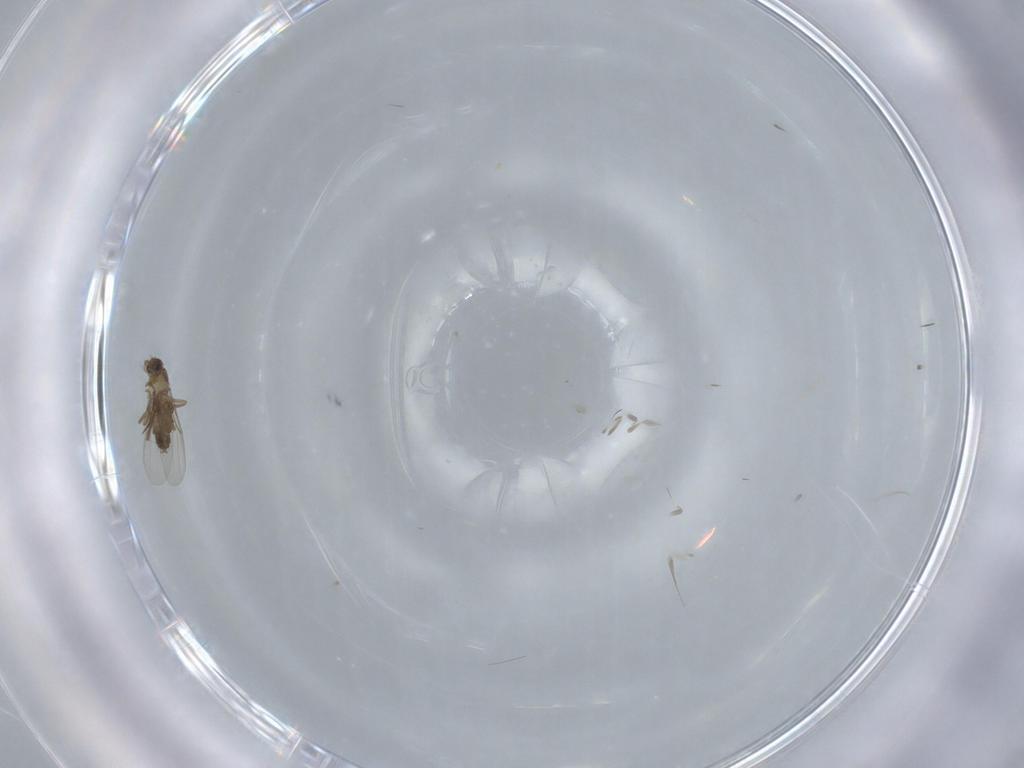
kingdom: Animalia
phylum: Arthropoda
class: Insecta
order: Diptera
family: Phoridae
